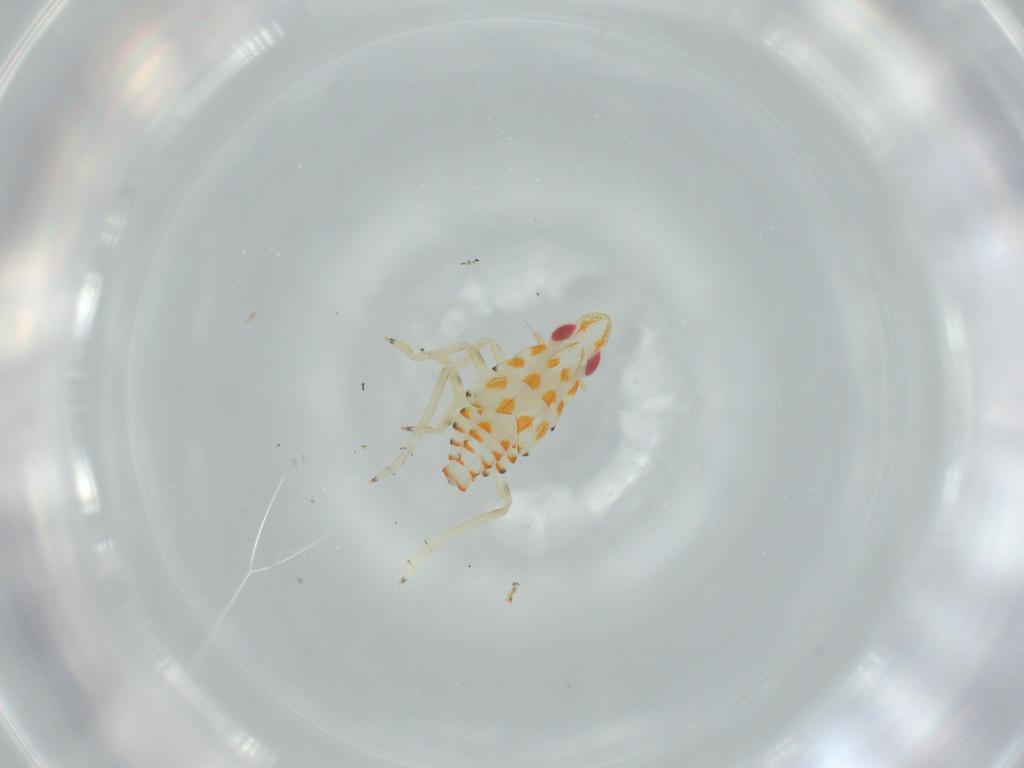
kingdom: Animalia
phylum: Arthropoda
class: Insecta
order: Hemiptera
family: Tropiduchidae
